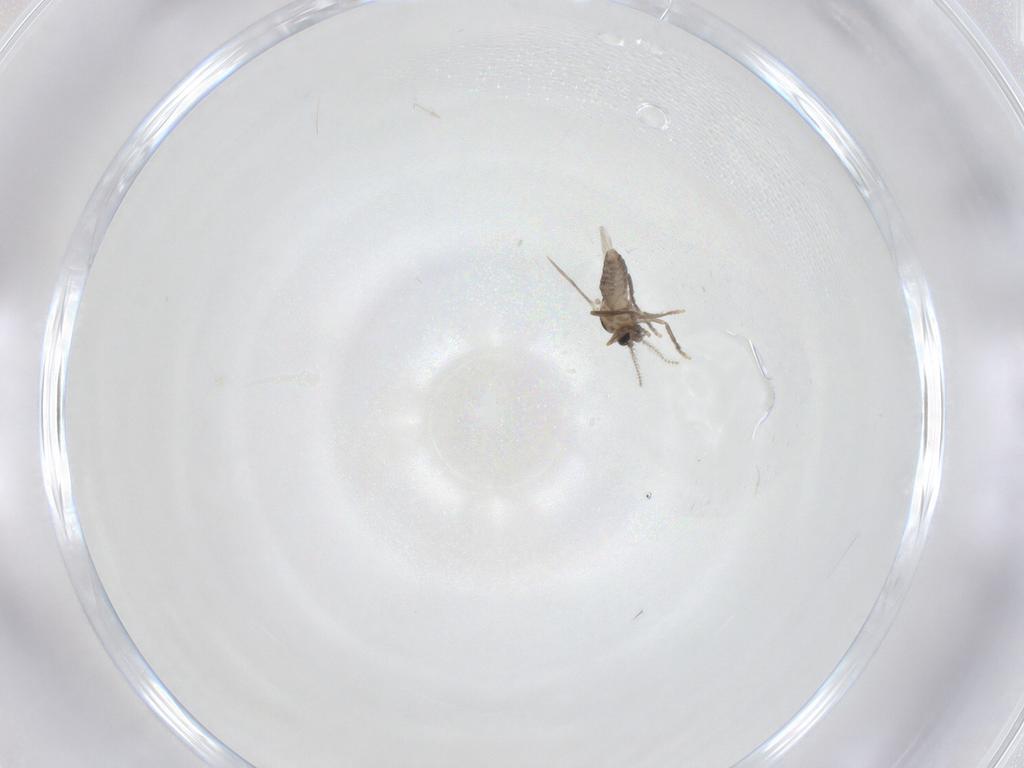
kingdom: Animalia
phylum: Arthropoda
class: Insecta
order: Diptera
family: Ceratopogonidae
